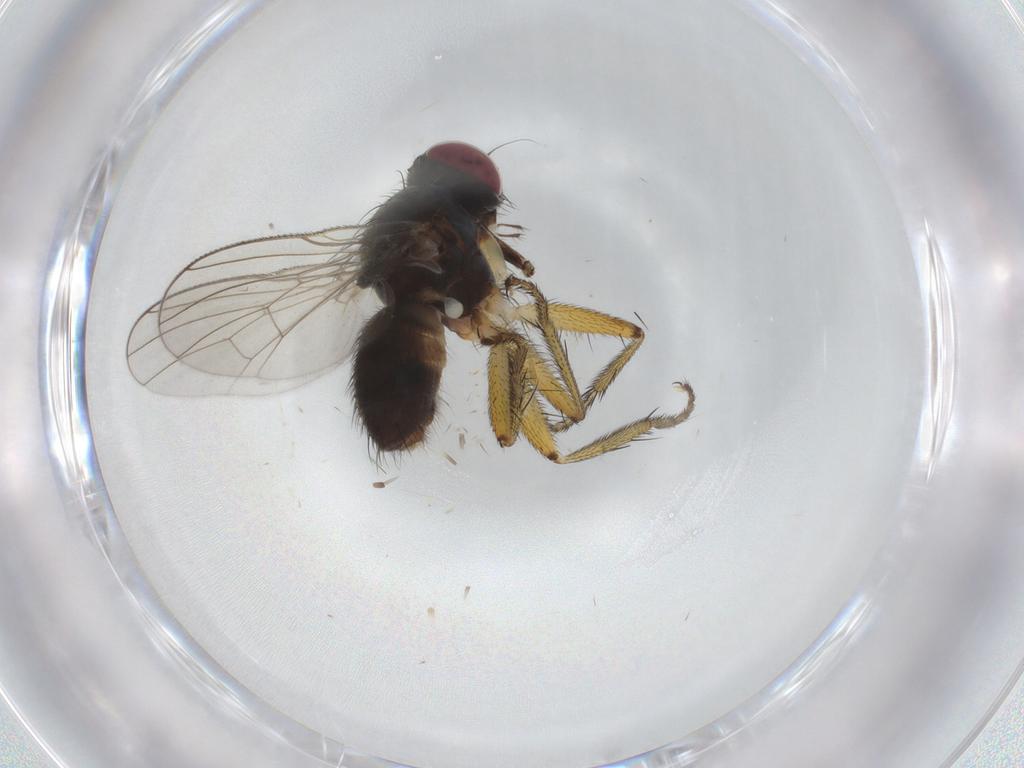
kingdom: Animalia
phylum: Arthropoda
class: Insecta
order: Diptera
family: Muscidae
